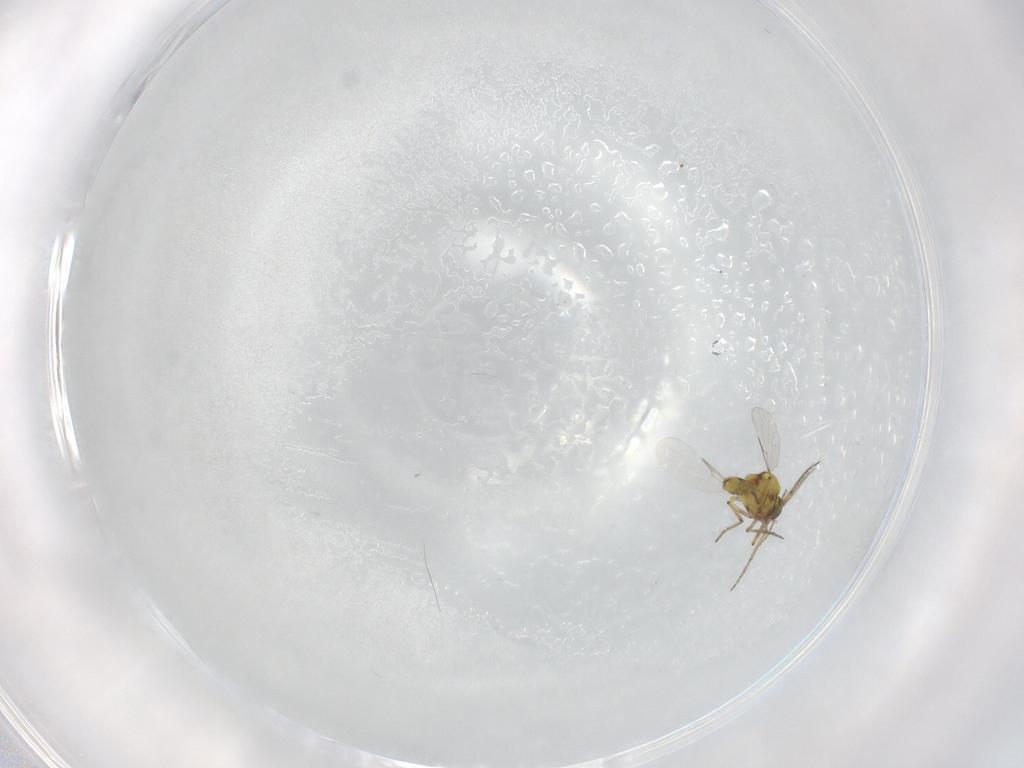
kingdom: Animalia
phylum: Arthropoda
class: Insecta
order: Diptera
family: Ceratopogonidae
